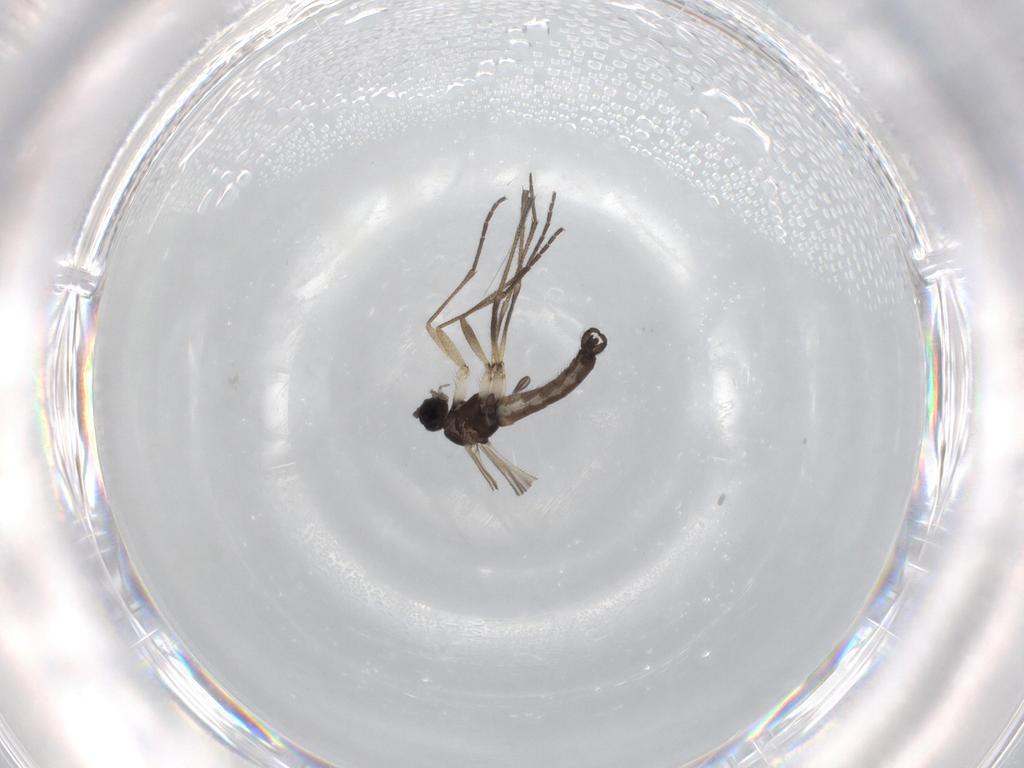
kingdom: Animalia
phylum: Arthropoda
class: Insecta
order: Diptera
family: Sciaridae
